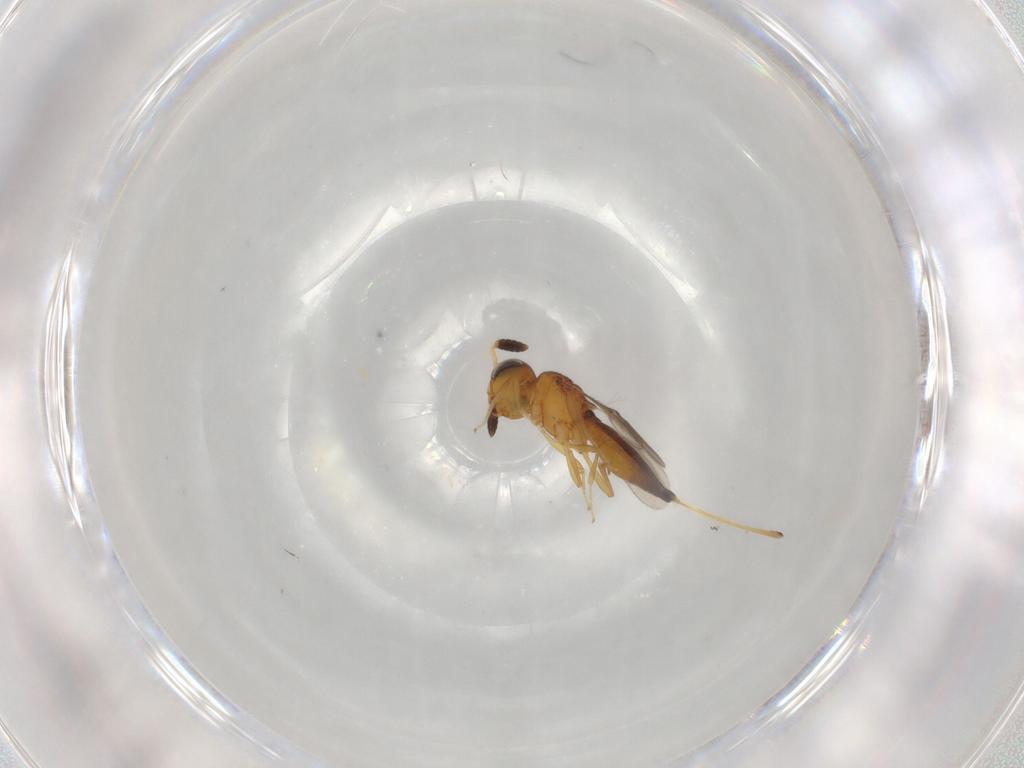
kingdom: Animalia
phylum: Arthropoda
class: Insecta
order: Hymenoptera
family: Scelionidae
